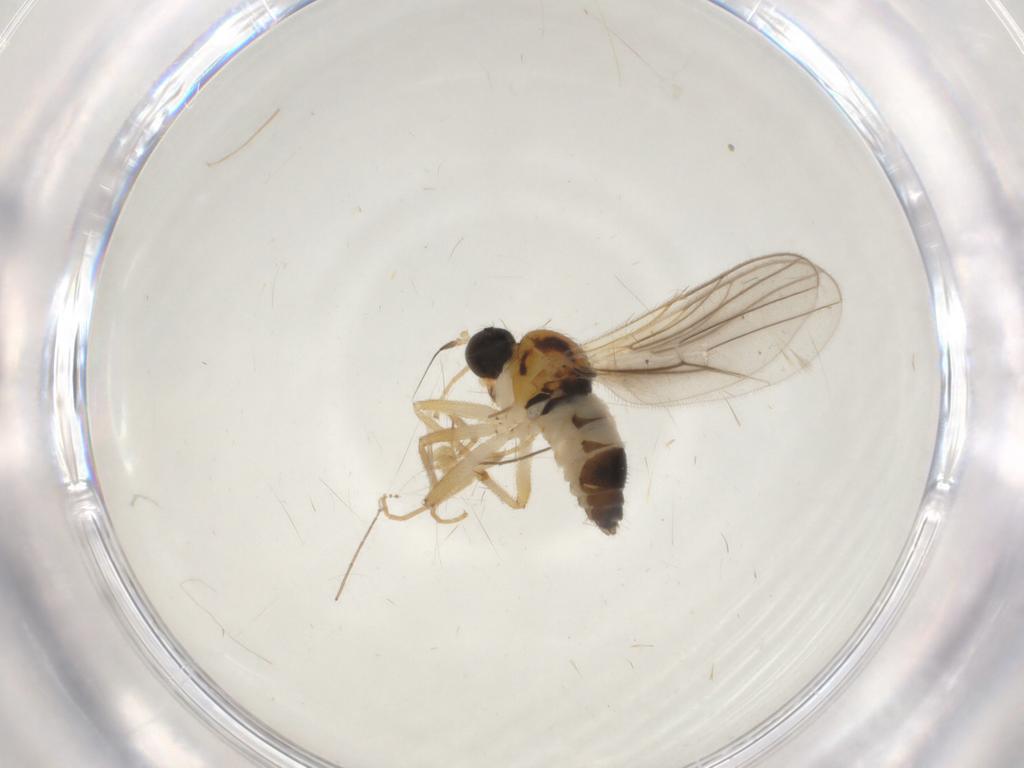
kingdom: Animalia
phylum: Arthropoda
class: Insecta
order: Diptera
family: Hybotidae
